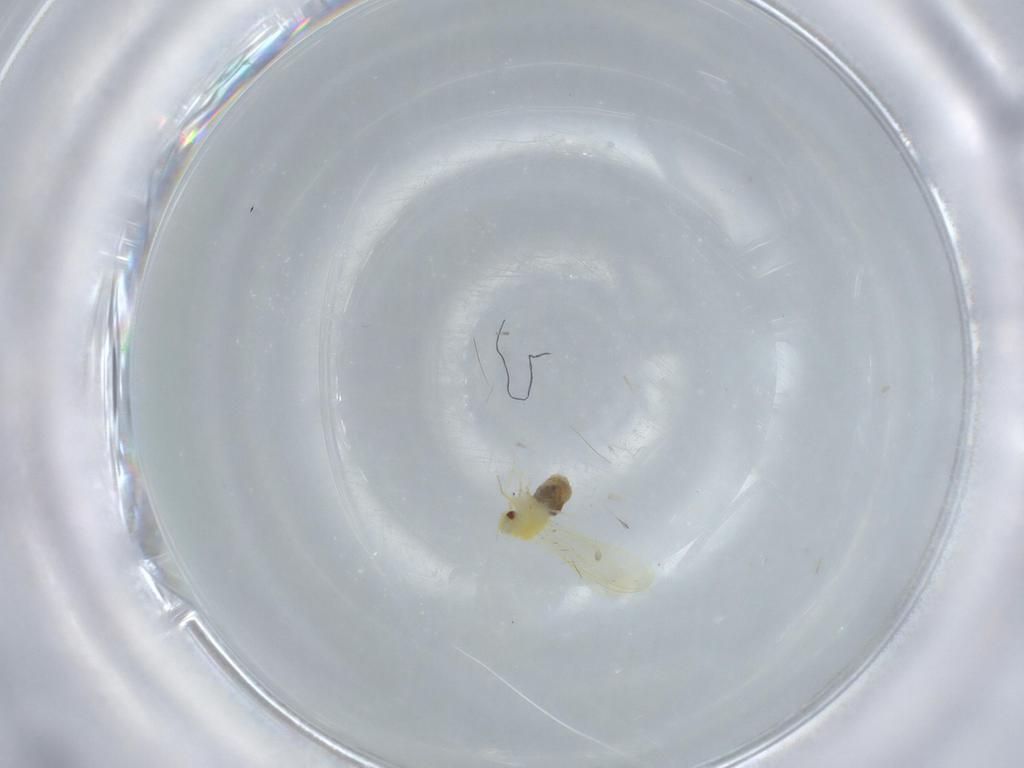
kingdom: Animalia
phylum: Arthropoda
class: Insecta
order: Hemiptera
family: Aleyrodidae
